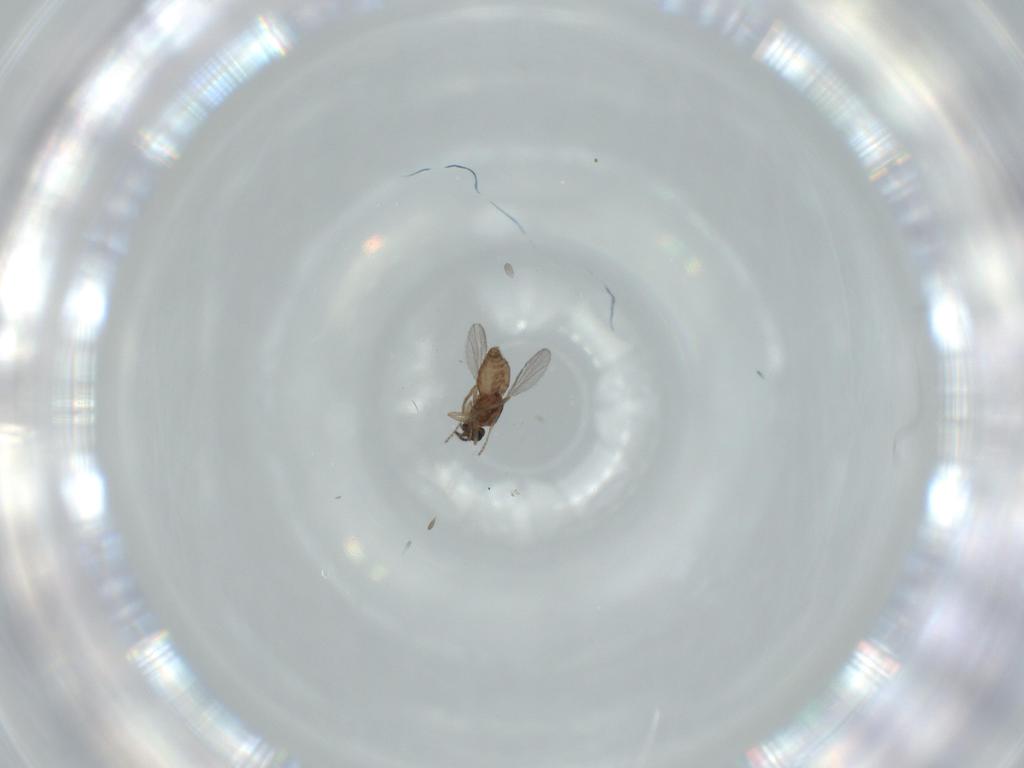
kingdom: Animalia
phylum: Arthropoda
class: Insecta
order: Diptera
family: Ceratopogonidae
